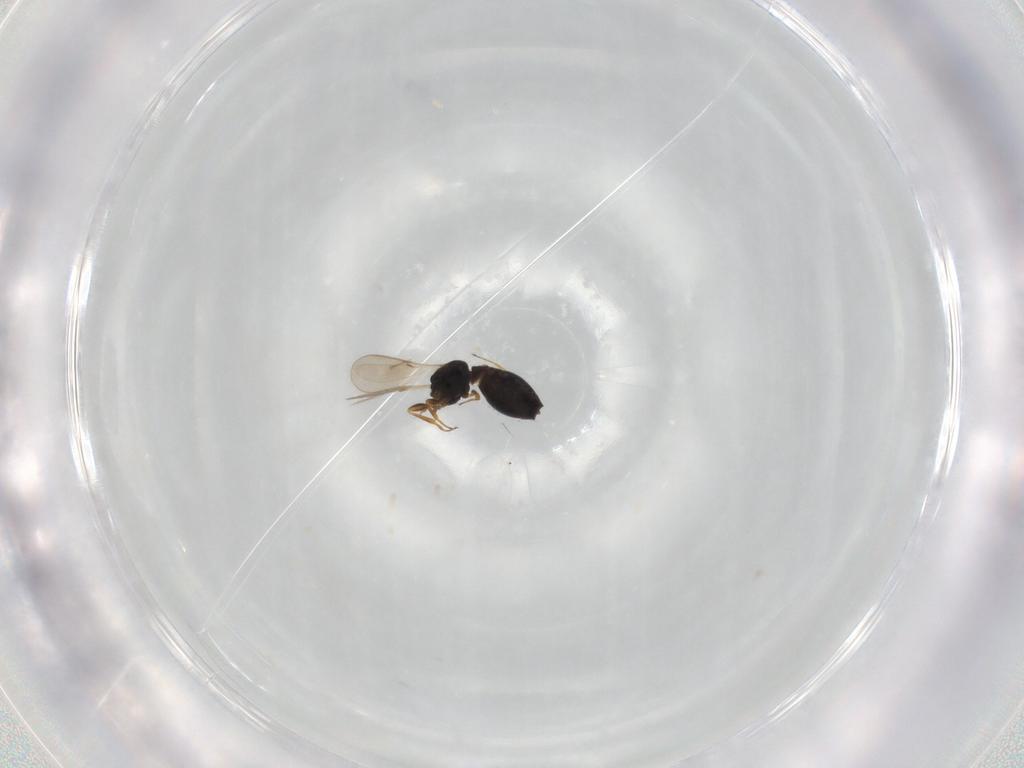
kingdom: Animalia
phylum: Arthropoda
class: Insecta
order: Hymenoptera
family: Scelionidae
